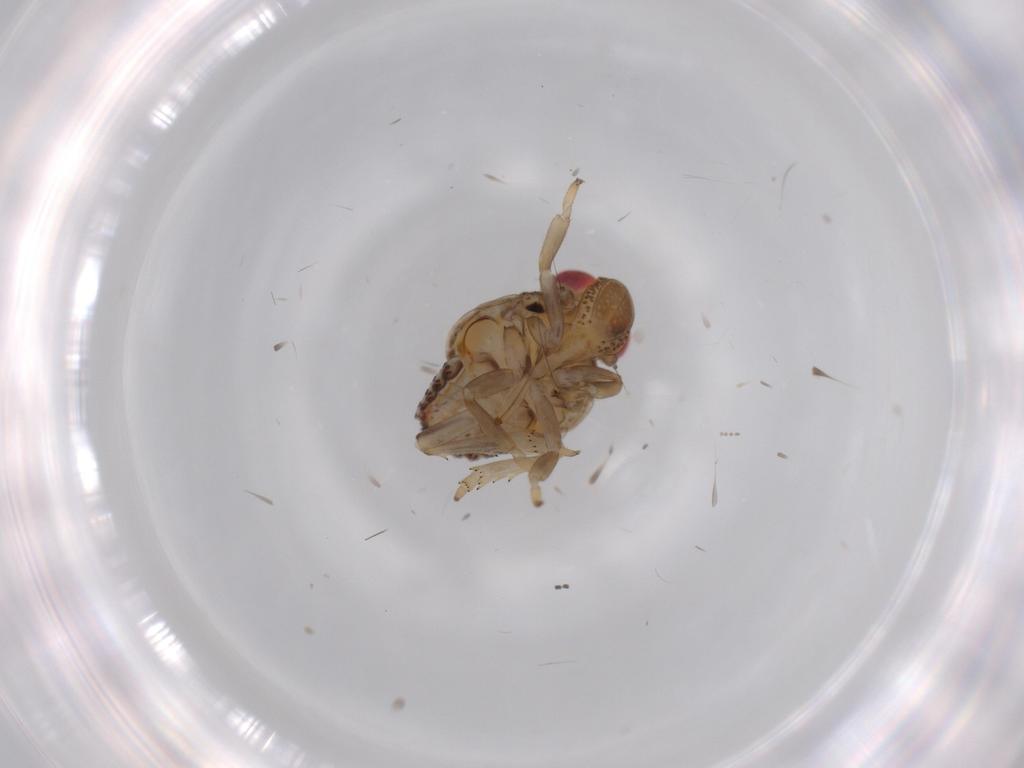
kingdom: Animalia
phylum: Arthropoda
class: Insecta
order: Hemiptera
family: Issidae
